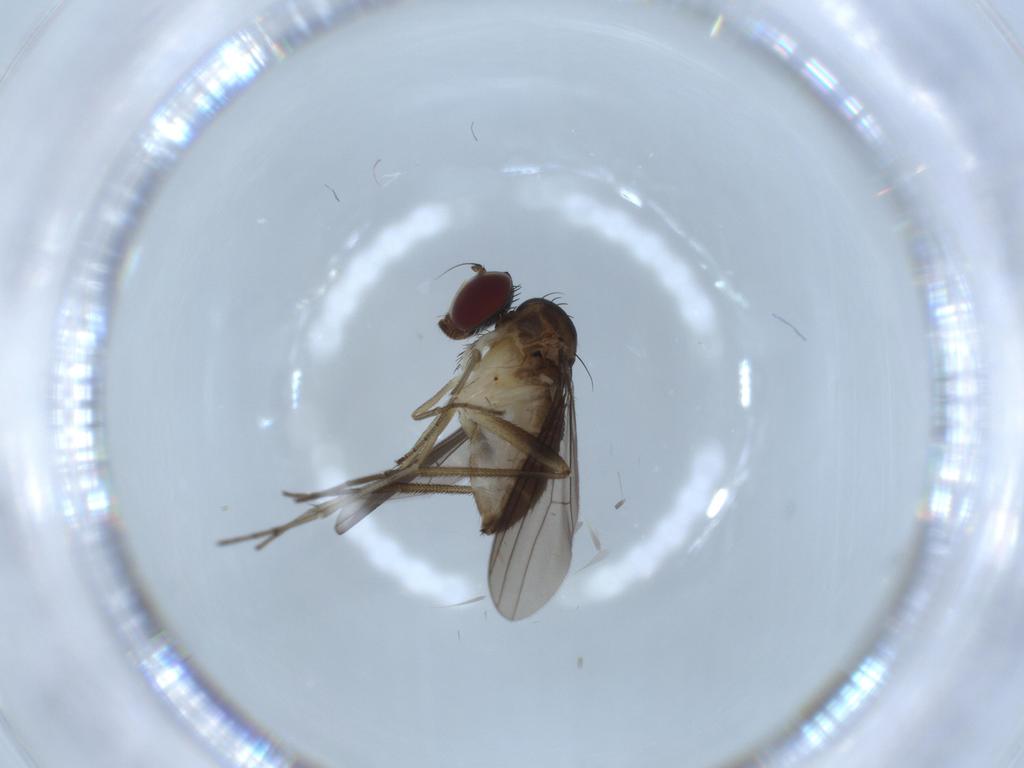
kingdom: Animalia
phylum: Arthropoda
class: Insecta
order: Diptera
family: Dolichopodidae
